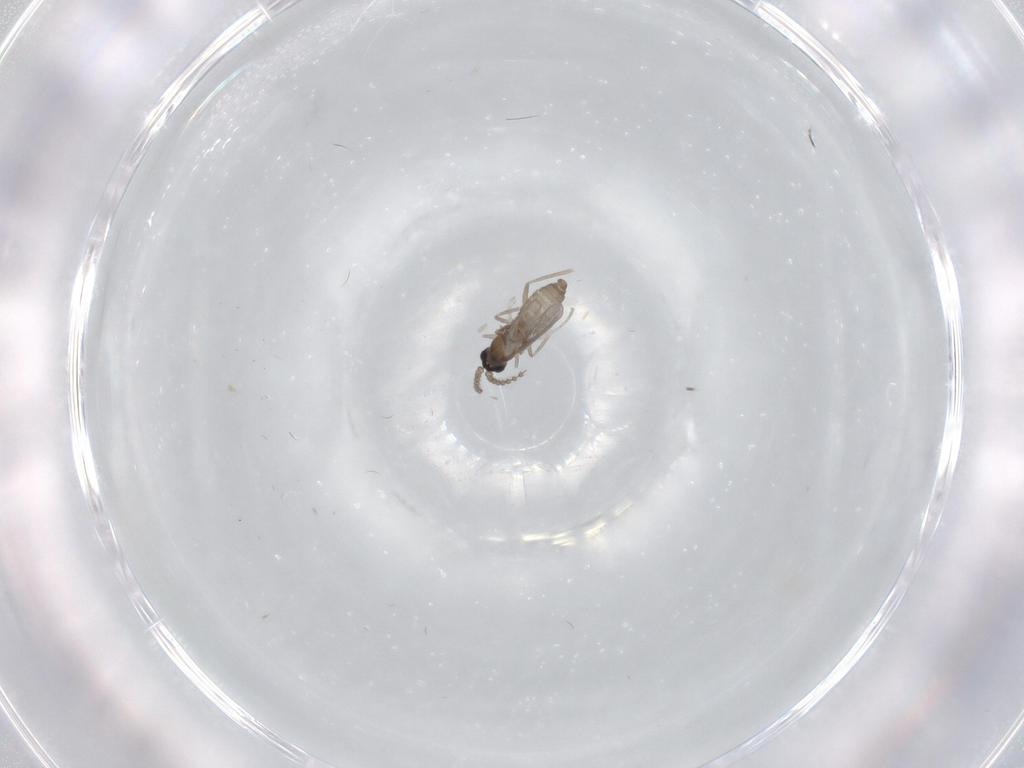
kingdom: Animalia
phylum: Arthropoda
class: Insecta
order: Diptera
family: Cecidomyiidae
